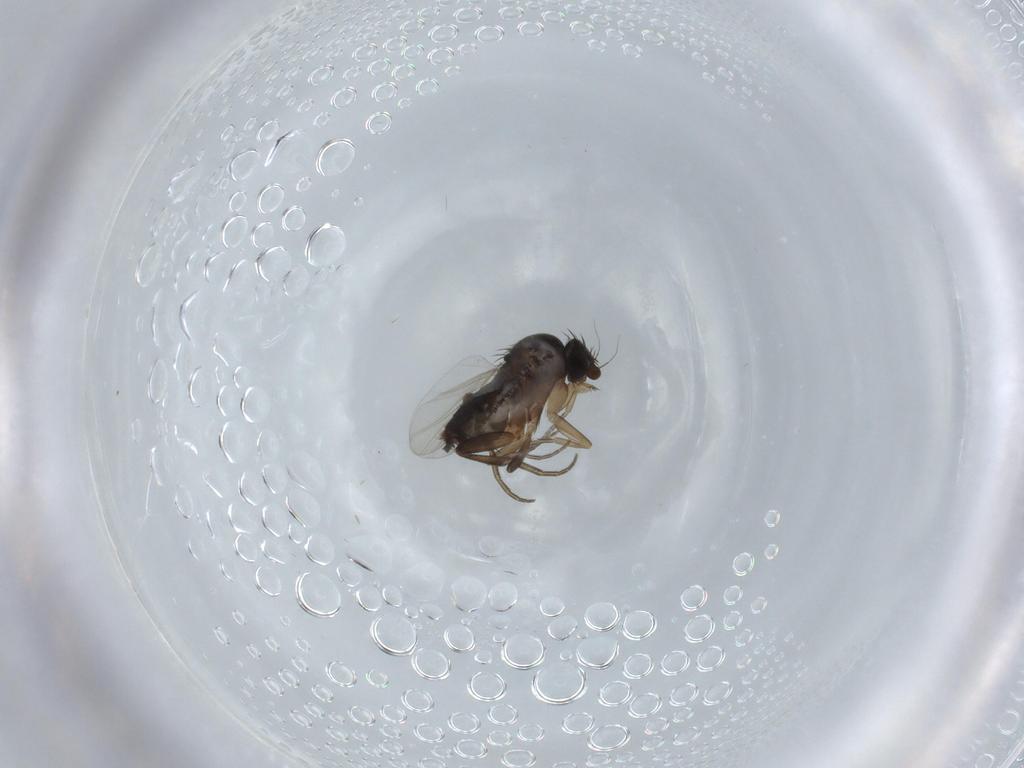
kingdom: Animalia
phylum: Arthropoda
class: Insecta
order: Diptera
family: Phoridae
